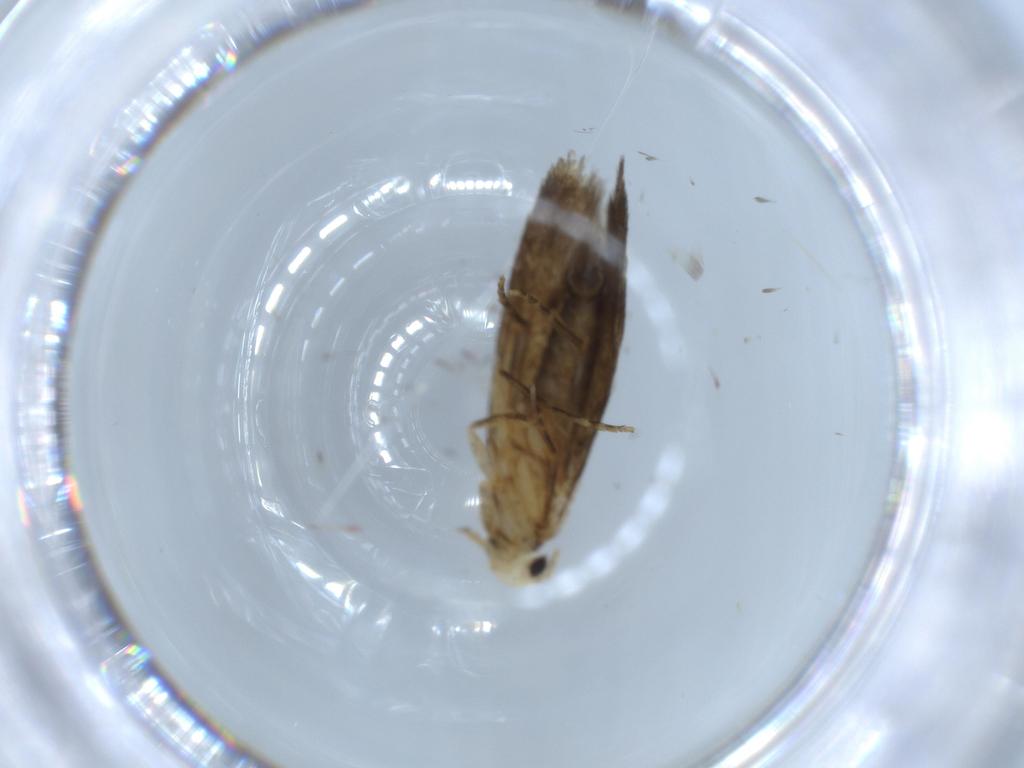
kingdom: Animalia
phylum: Arthropoda
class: Insecta
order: Lepidoptera
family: Tineidae
